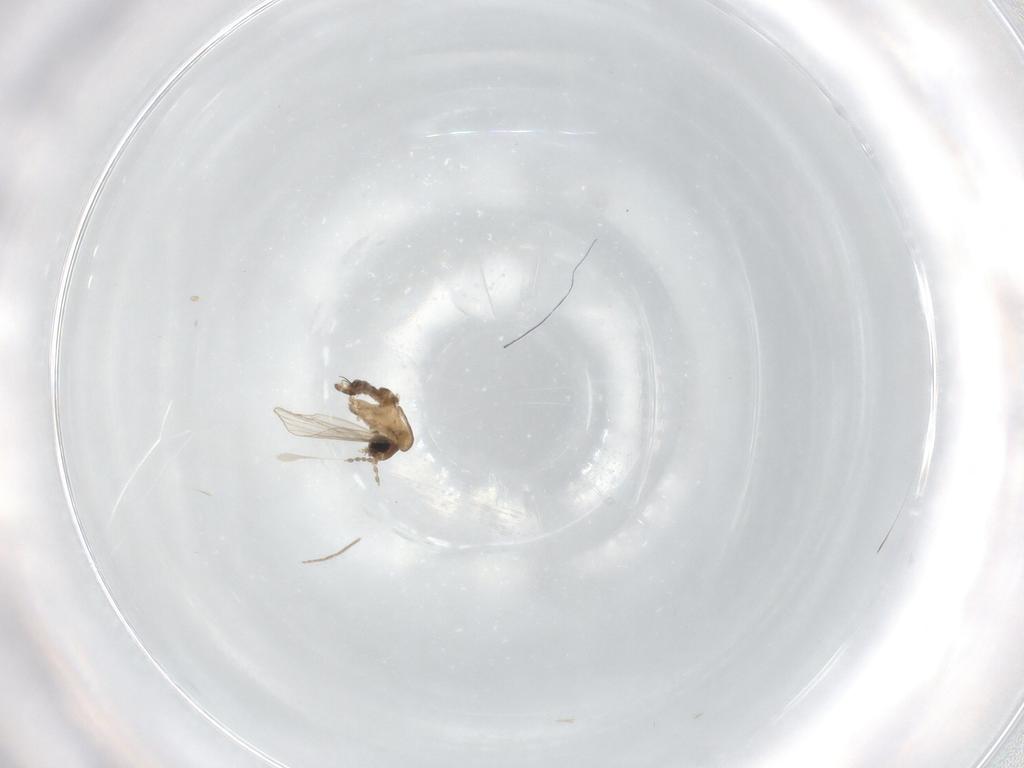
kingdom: Animalia
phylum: Arthropoda
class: Insecta
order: Diptera
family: Chironomidae
